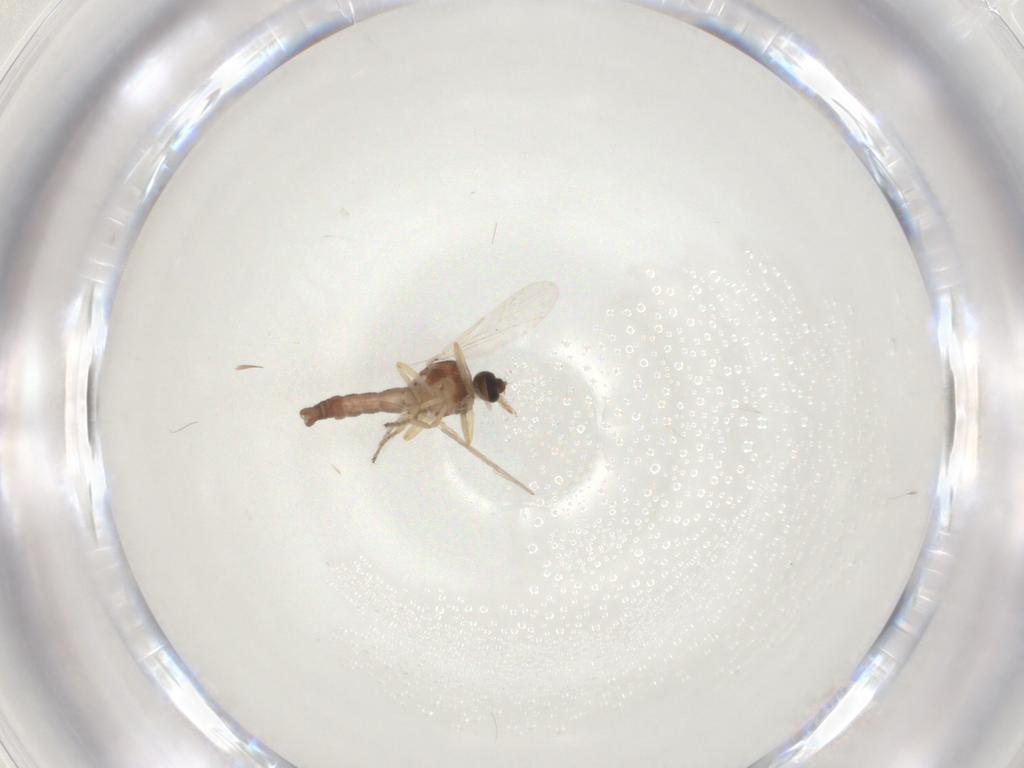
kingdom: Animalia
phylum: Arthropoda
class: Insecta
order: Diptera
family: Ceratopogonidae
